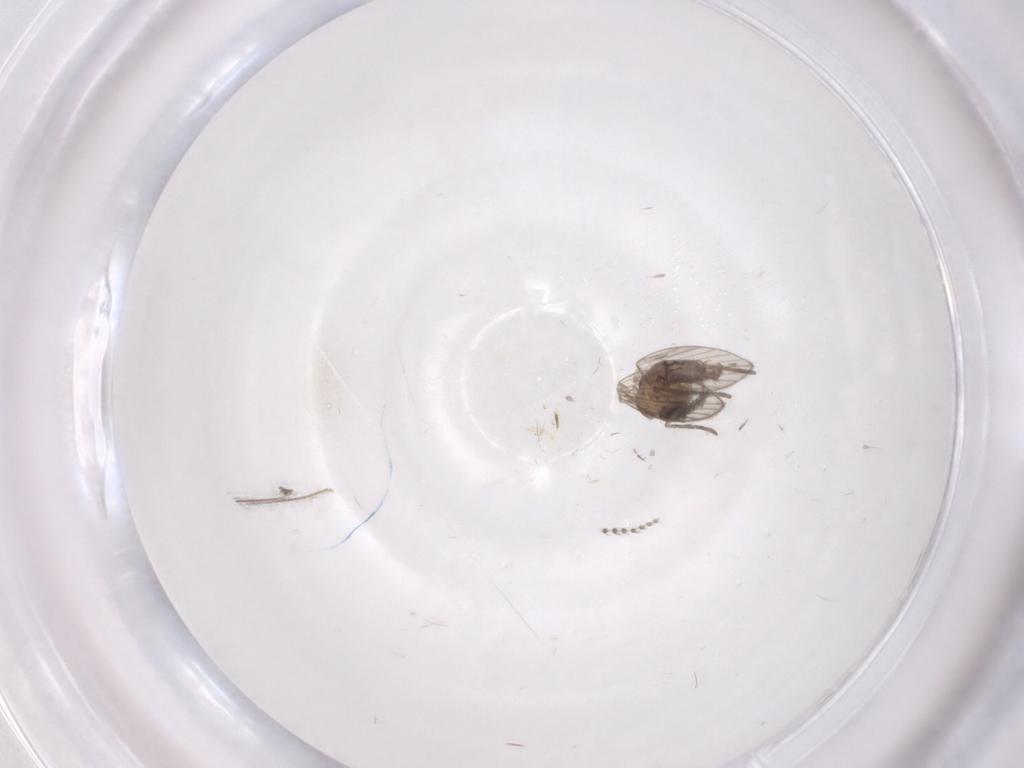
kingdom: Animalia
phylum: Arthropoda
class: Insecta
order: Diptera
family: Psychodidae
